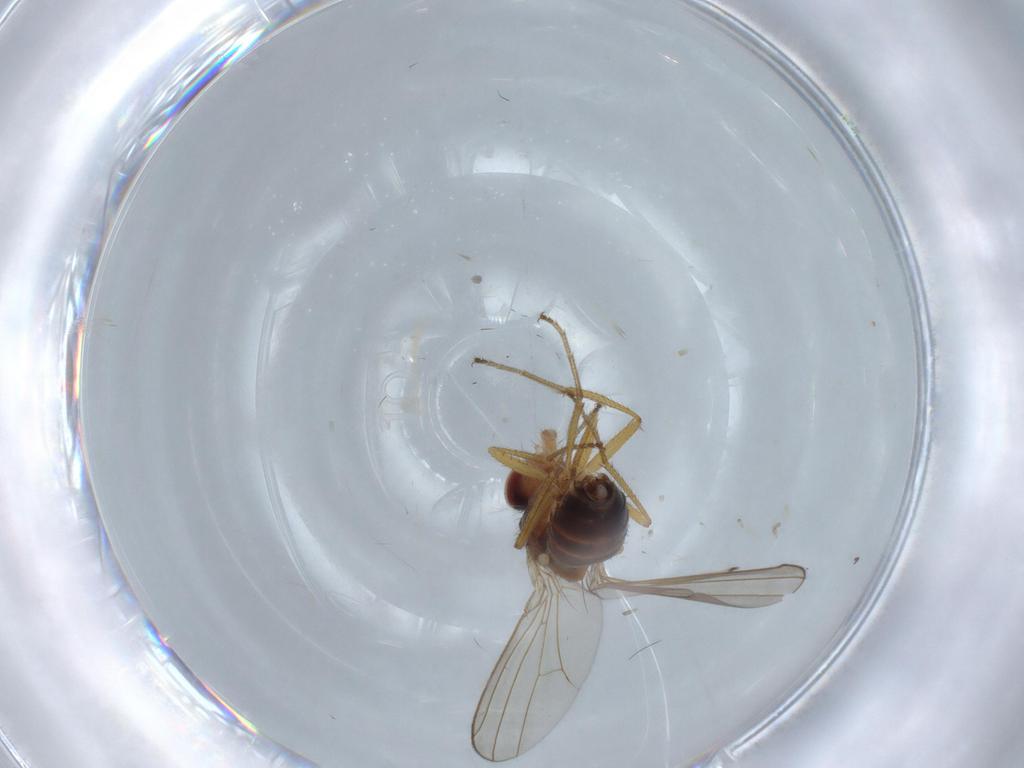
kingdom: Animalia
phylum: Arthropoda
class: Insecta
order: Diptera
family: Drosophilidae
